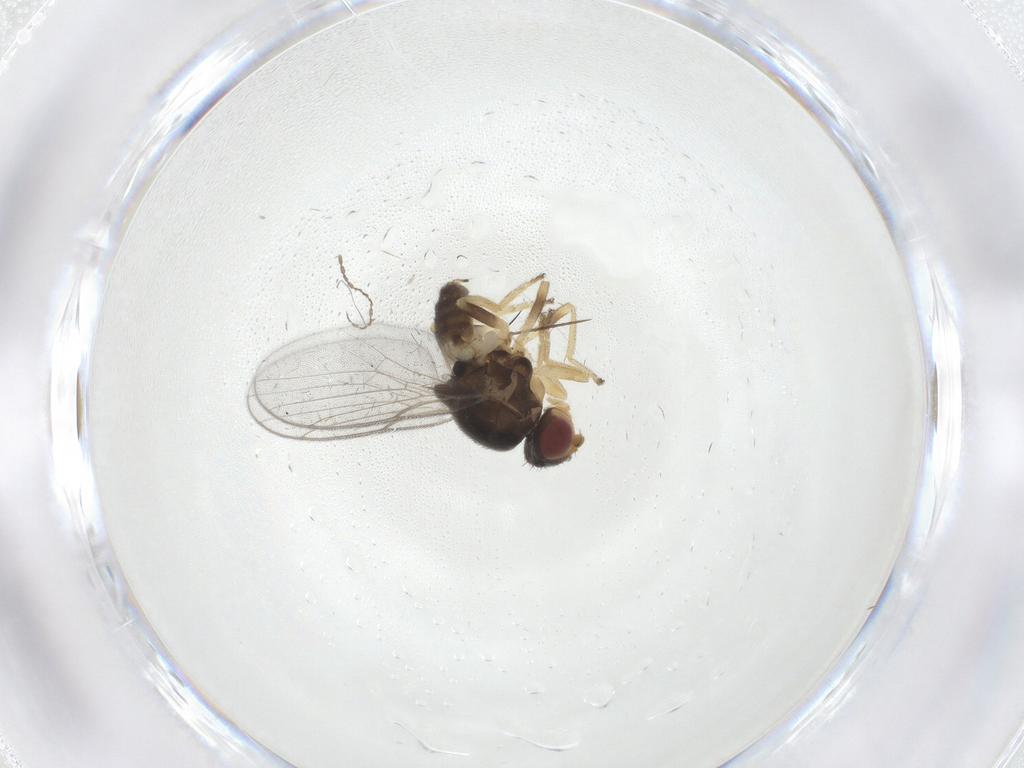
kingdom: Animalia
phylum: Arthropoda
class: Insecta
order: Diptera
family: Chloropidae
